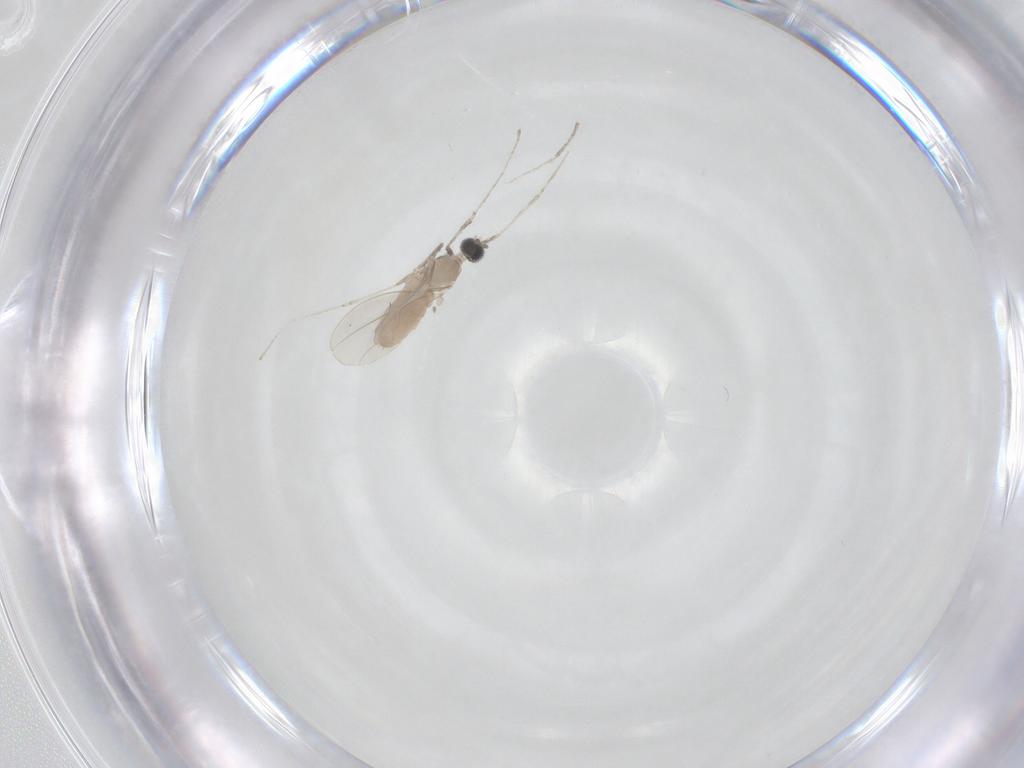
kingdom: Animalia
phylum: Arthropoda
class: Insecta
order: Diptera
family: Cecidomyiidae
